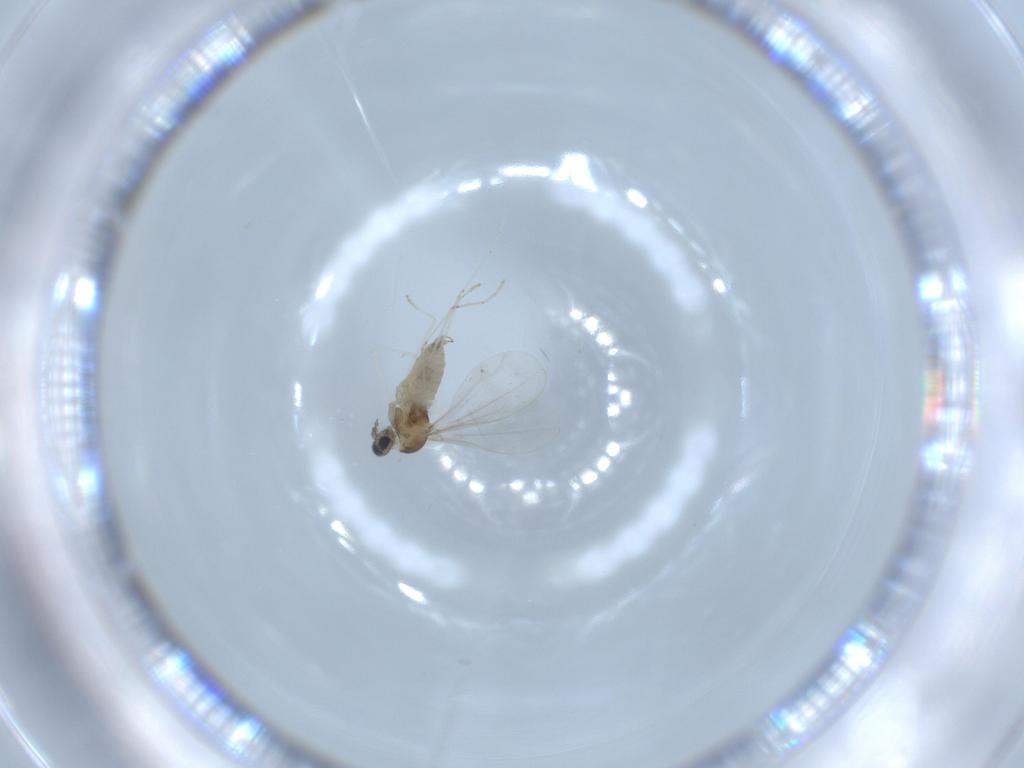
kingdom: Animalia
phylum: Arthropoda
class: Insecta
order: Diptera
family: Cecidomyiidae
